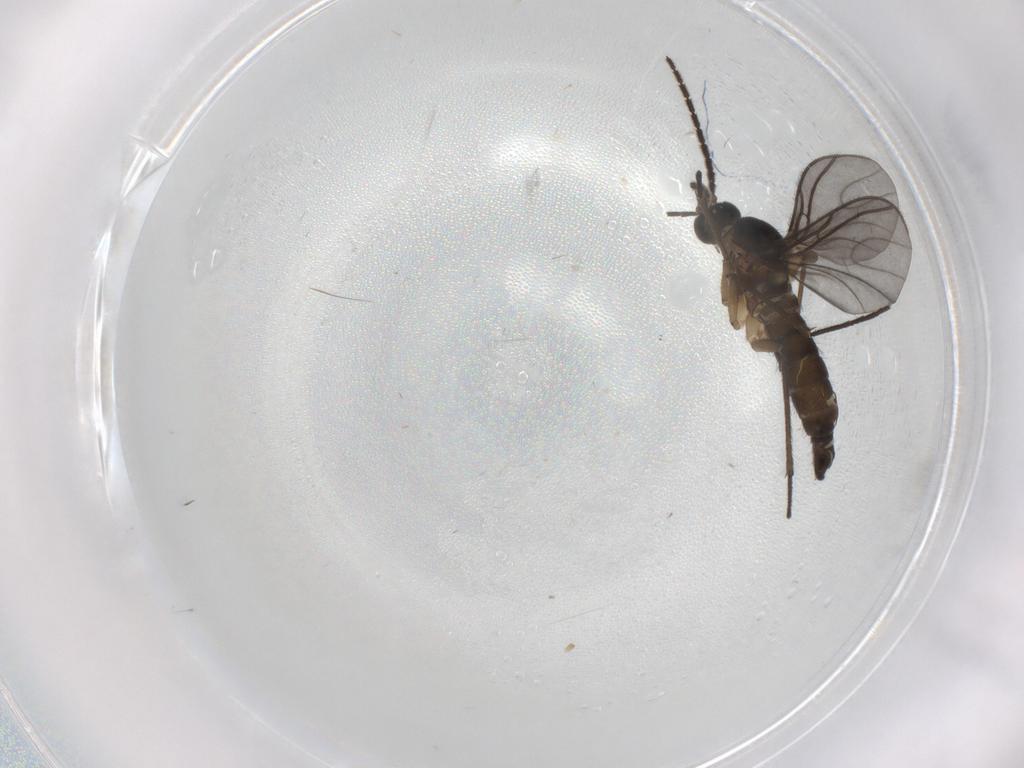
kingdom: Animalia
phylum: Arthropoda
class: Insecta
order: Diptera
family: Sciaridae
